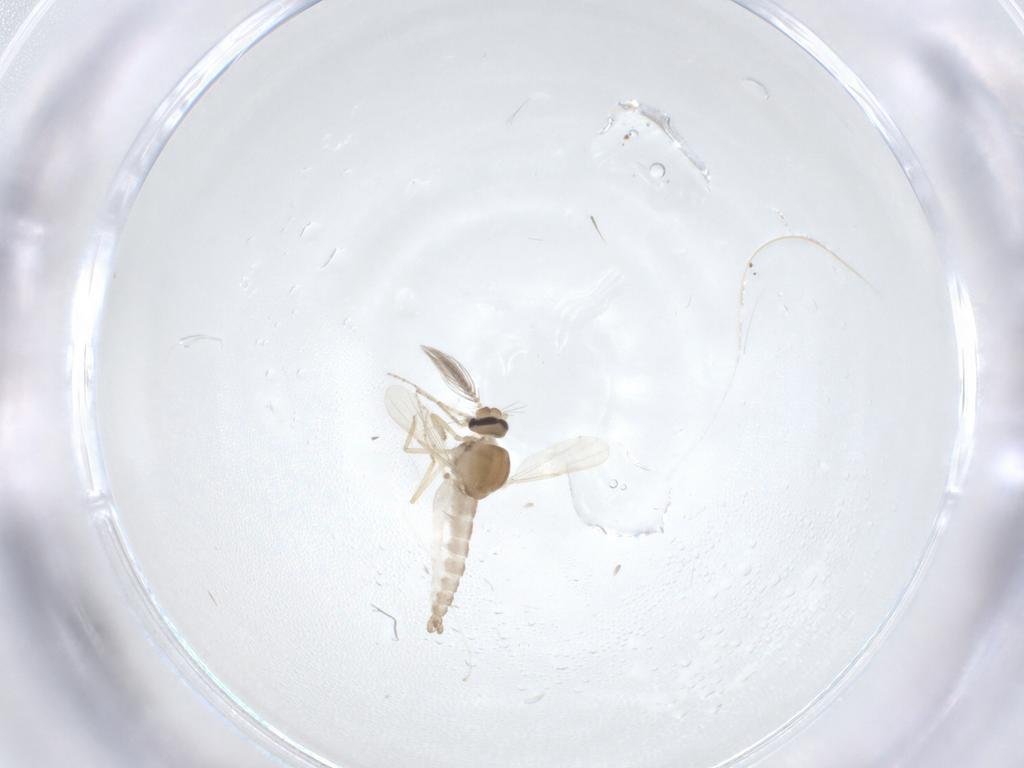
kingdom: Animalia
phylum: Arthropoda
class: Insecta
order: Diptera
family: Ceratopogonidae
